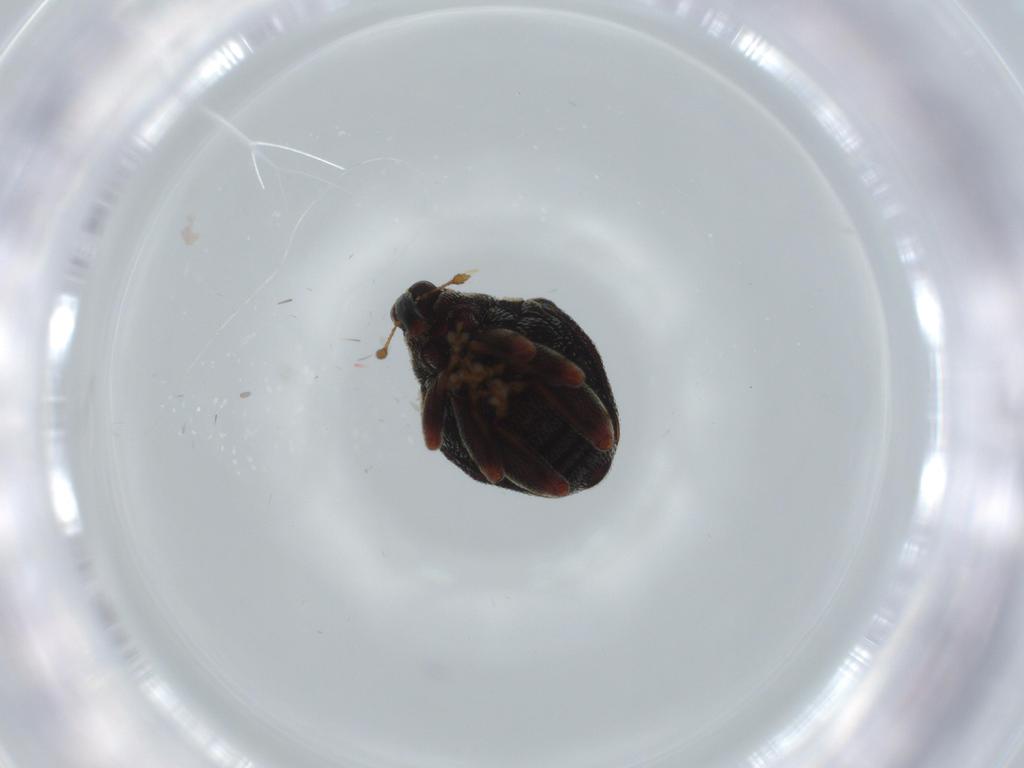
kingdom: Animalia
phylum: Arthropoda
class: Insecta
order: Coleoptera
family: Curculionidae
